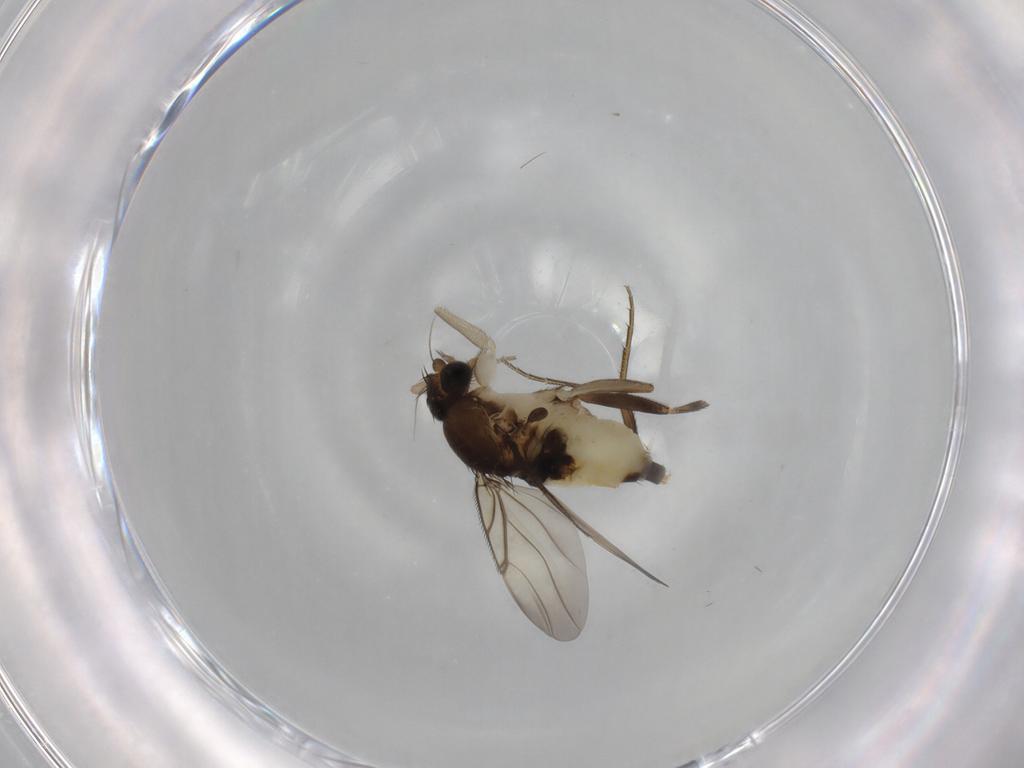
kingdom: Animalia
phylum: Arthropoda
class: Insecta
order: Diptera
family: Phoridae
